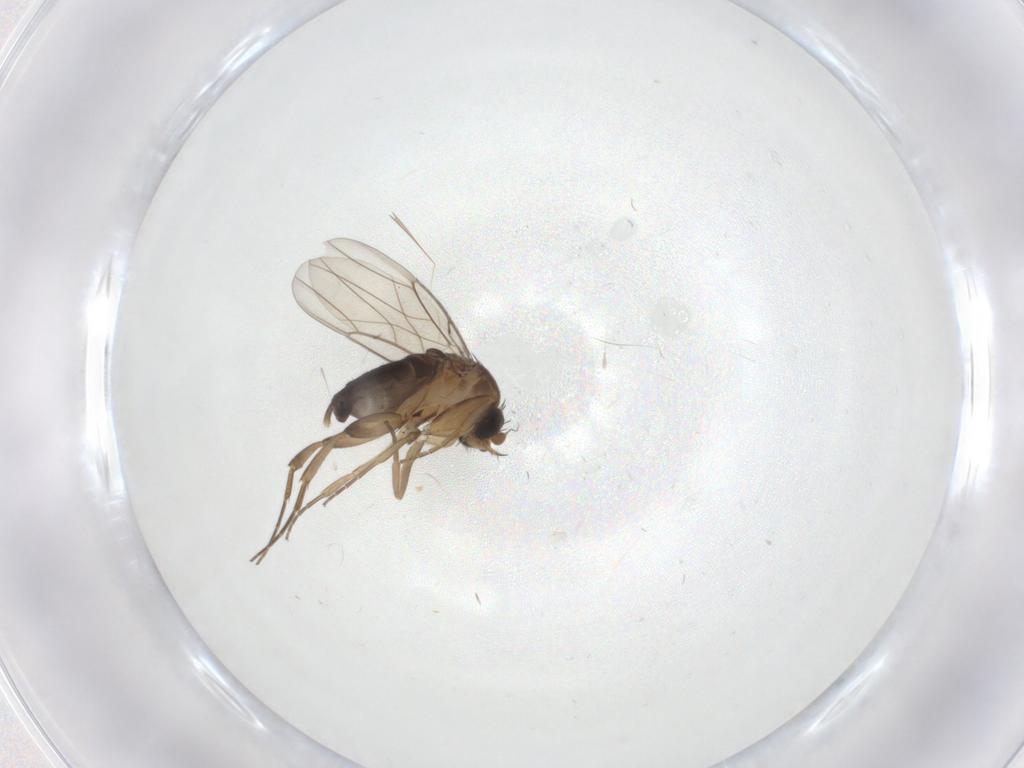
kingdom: Animalia
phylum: Arthropoda
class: Insecta
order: Diptera
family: Phoridae
